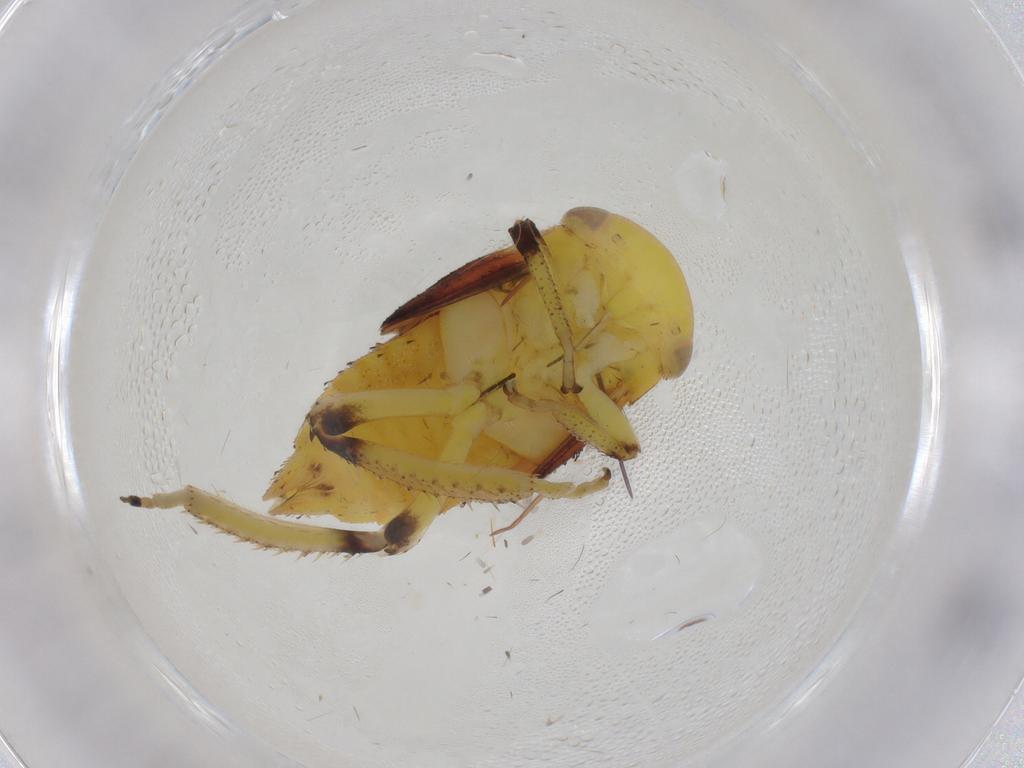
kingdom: Animalia
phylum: Arthropoda
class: Insecta
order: Hemiptera
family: Cicadellidae
